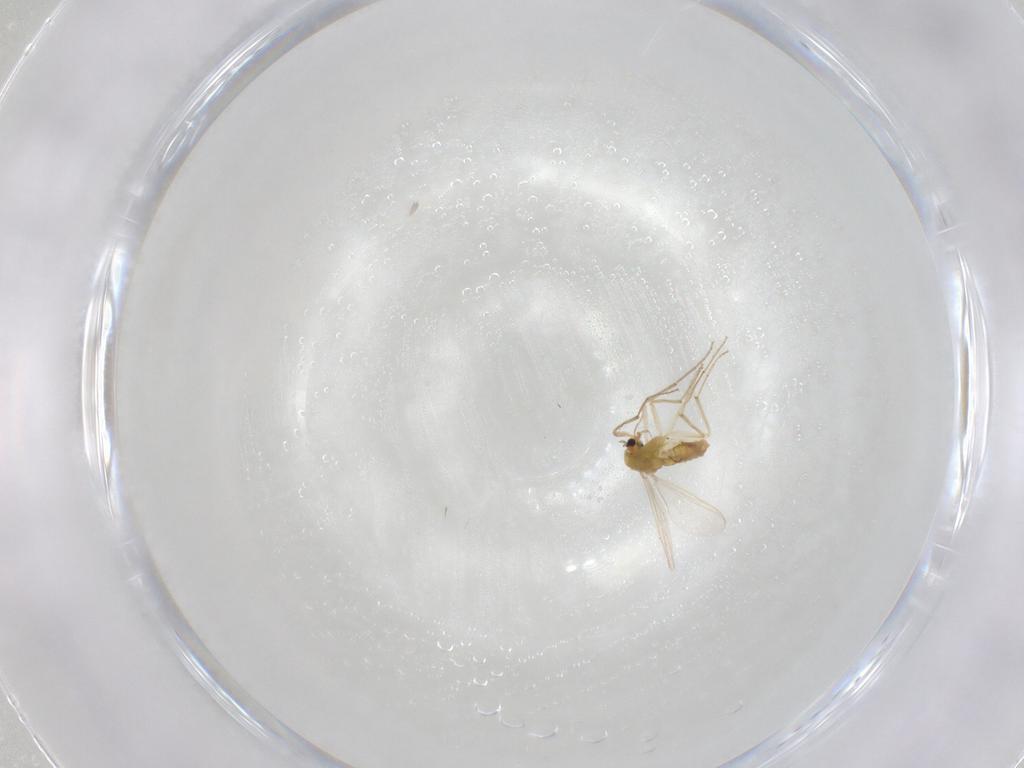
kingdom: Animalia
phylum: Arthropoda
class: Insecta
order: Diptera
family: Chironomidae
